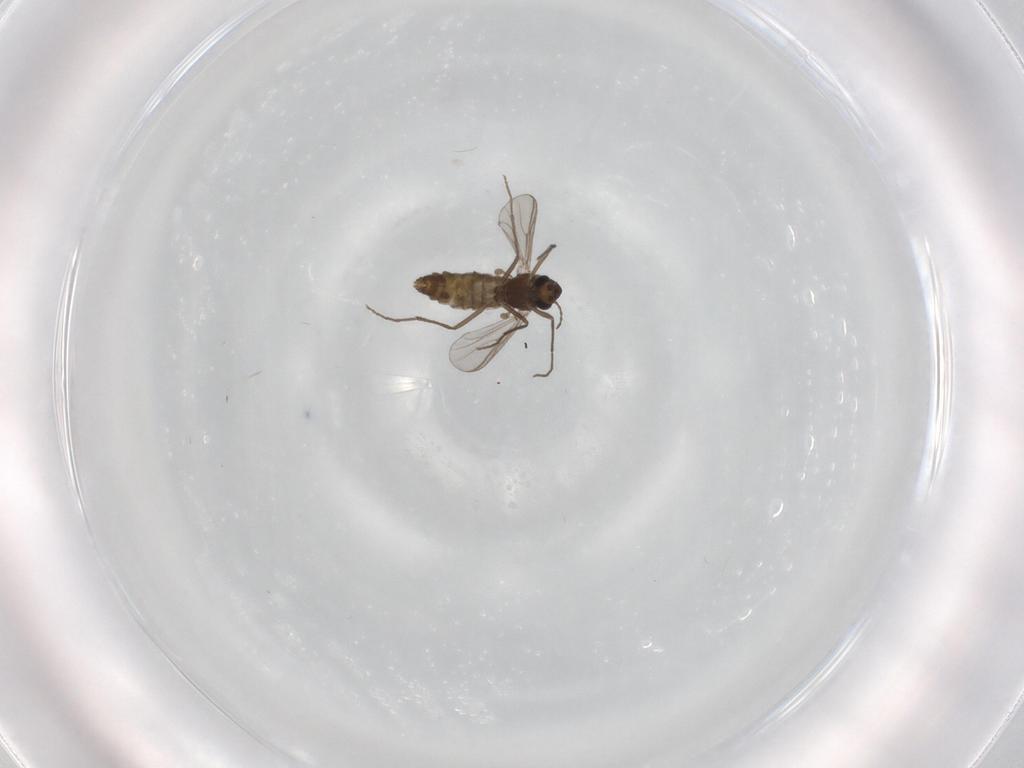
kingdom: Animalia
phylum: Arthropoda
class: Insecta
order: Diptera
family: Chironomidae
